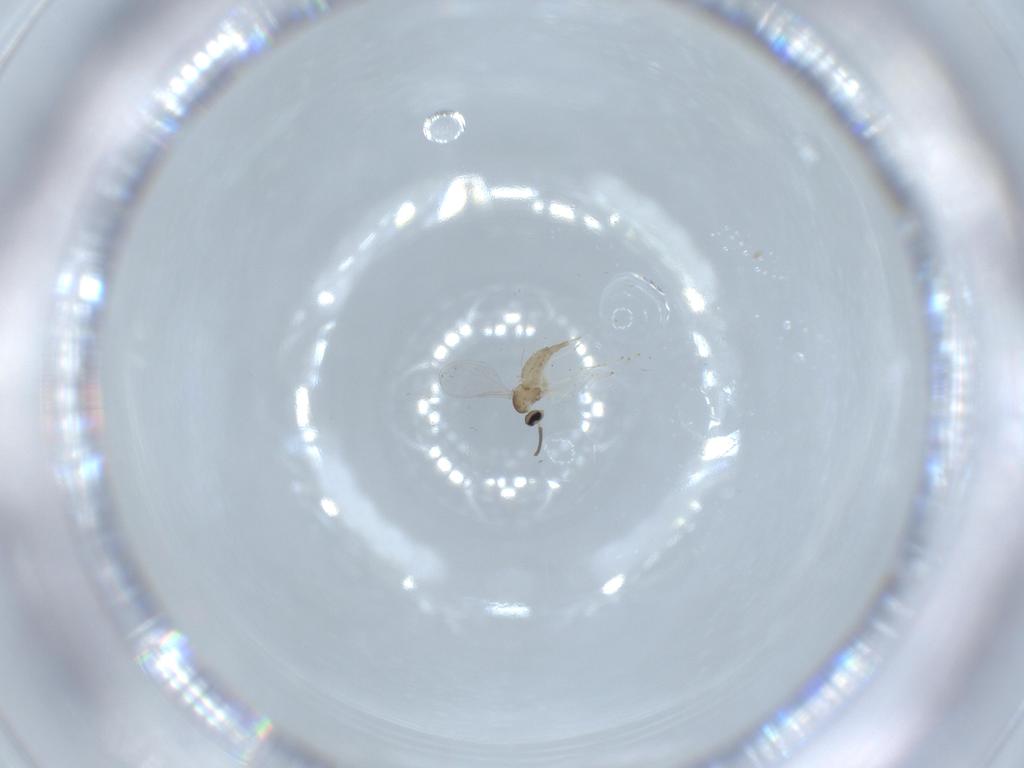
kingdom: Animalia
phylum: Arthropoda
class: Insecta
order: Diptera
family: Cecidomyiidae
